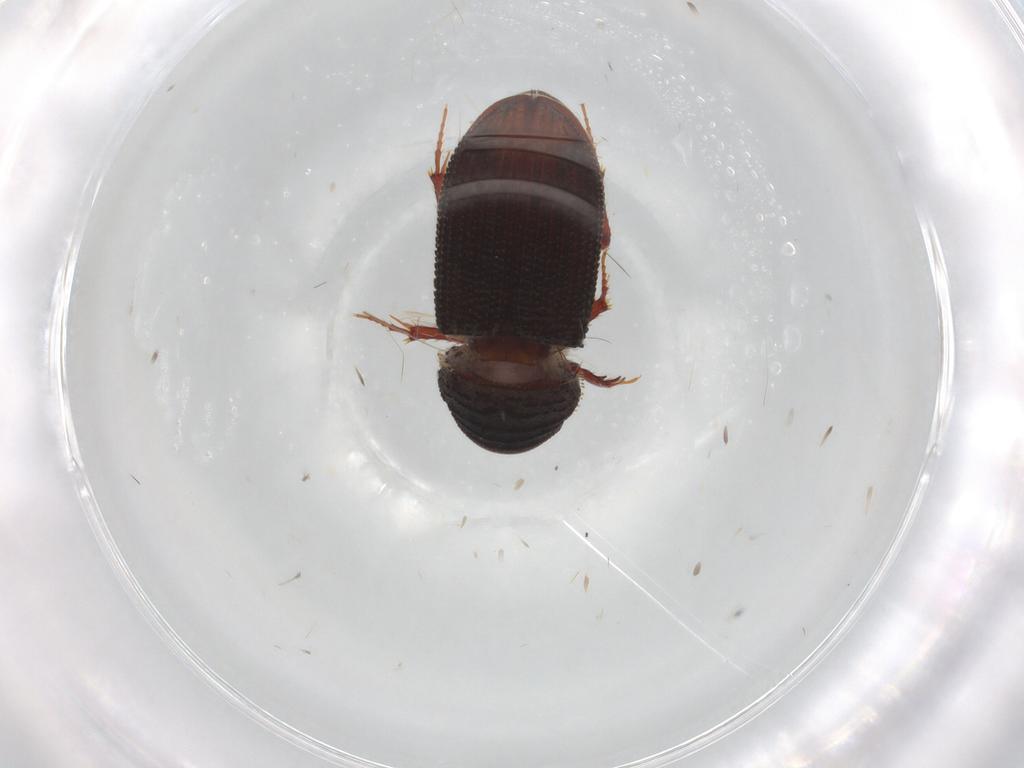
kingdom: Animalia
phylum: Arthropoda
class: Insecta
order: Coleoptera
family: Scarabaeidae
